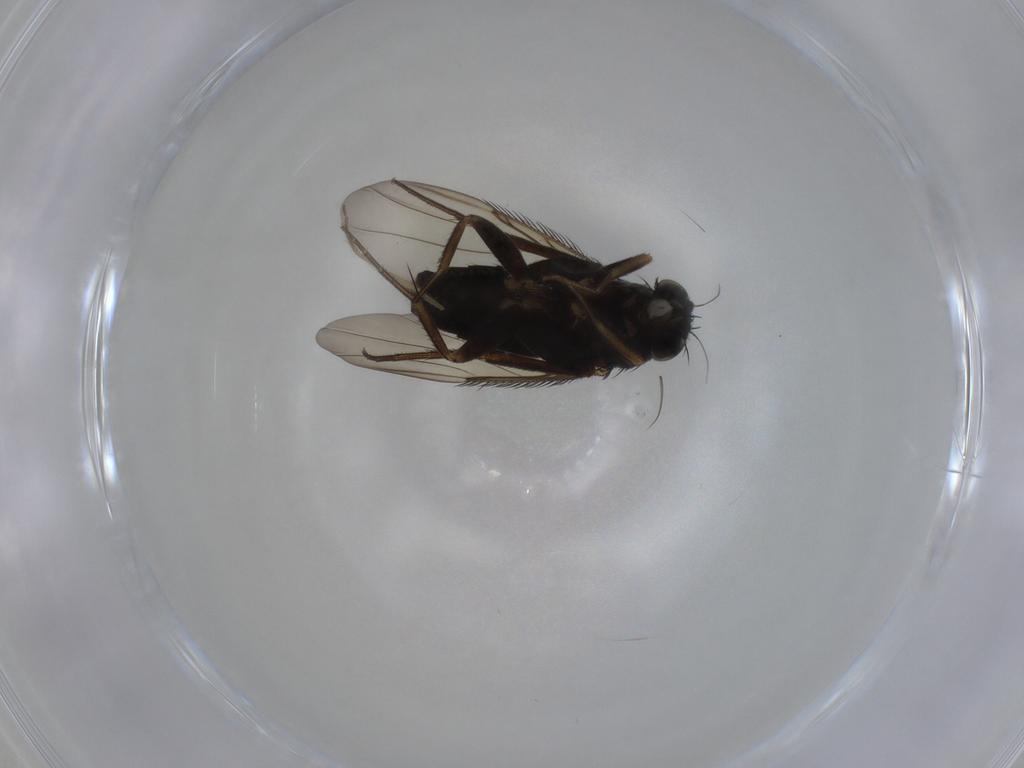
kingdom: Animalia
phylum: Arthropoda
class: Insecta
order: Diptera
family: Phoridae
